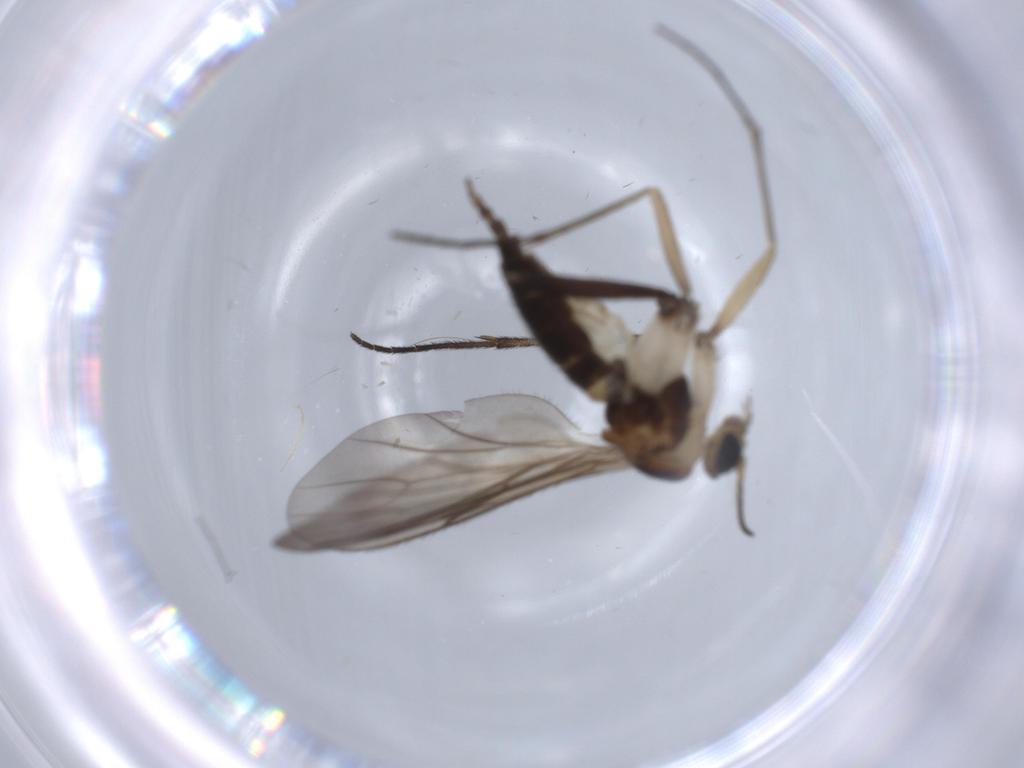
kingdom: Animalia
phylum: Arthropoda
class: Insecta
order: Diptera
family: Sciaridae
